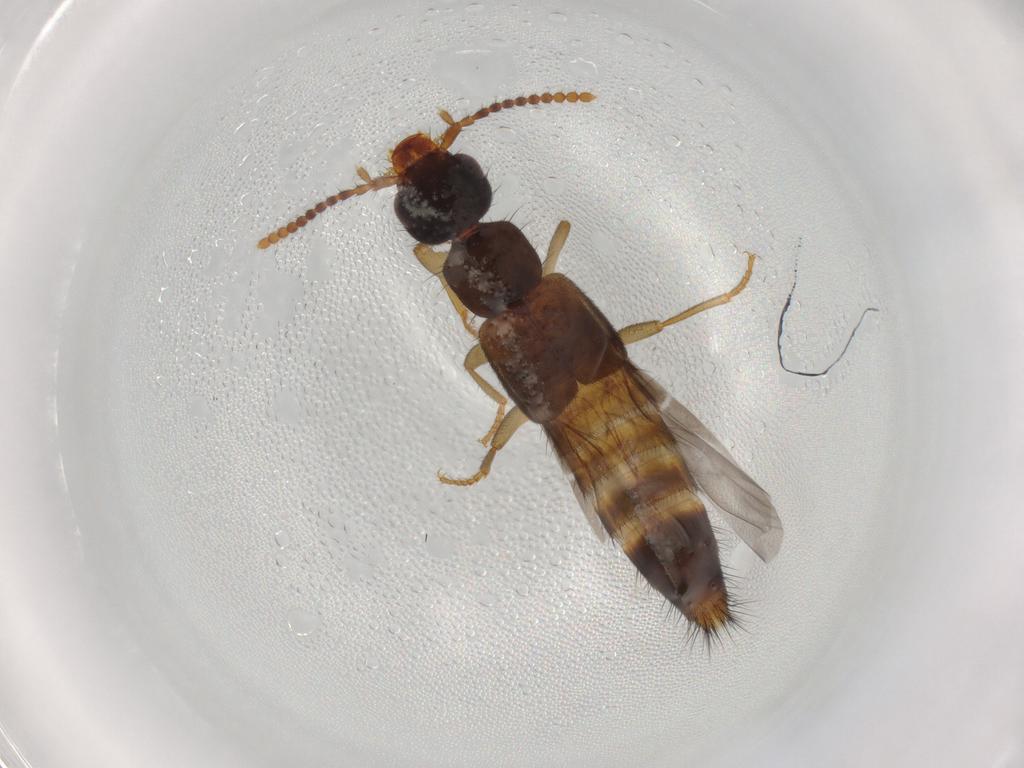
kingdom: Animalia
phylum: Arthropoda
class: Insecta
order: Coleoptera
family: Staphylinidae
